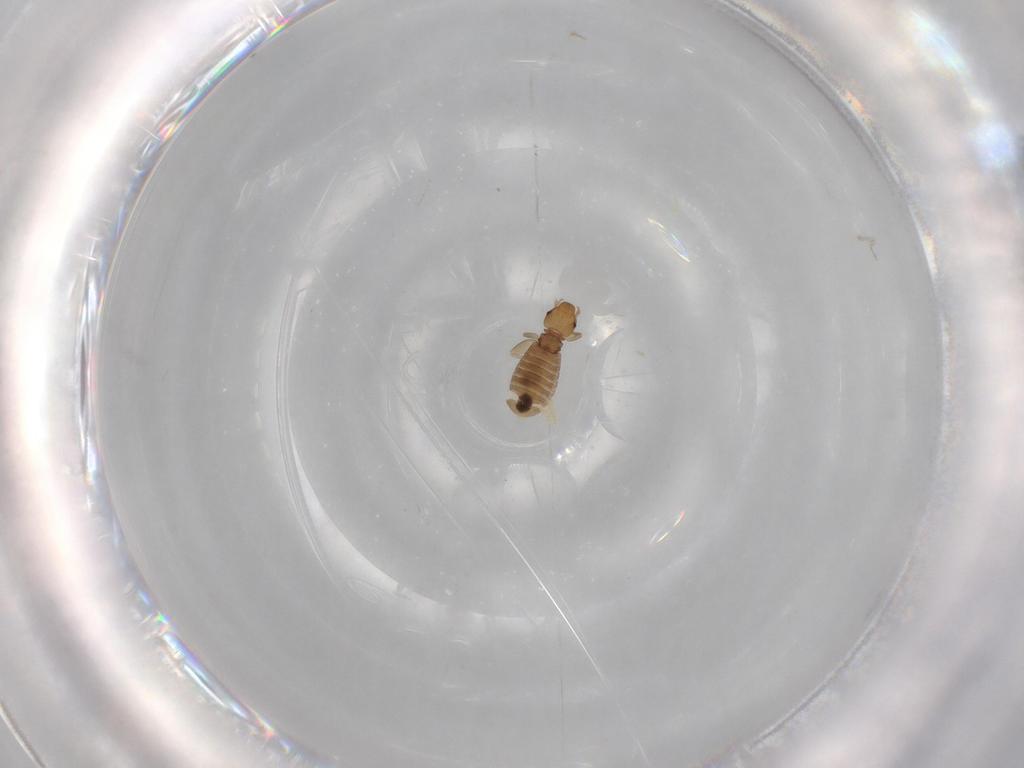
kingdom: Animalia
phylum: Arthropoda
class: Insecta
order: Psocodea
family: Liposcelididae
